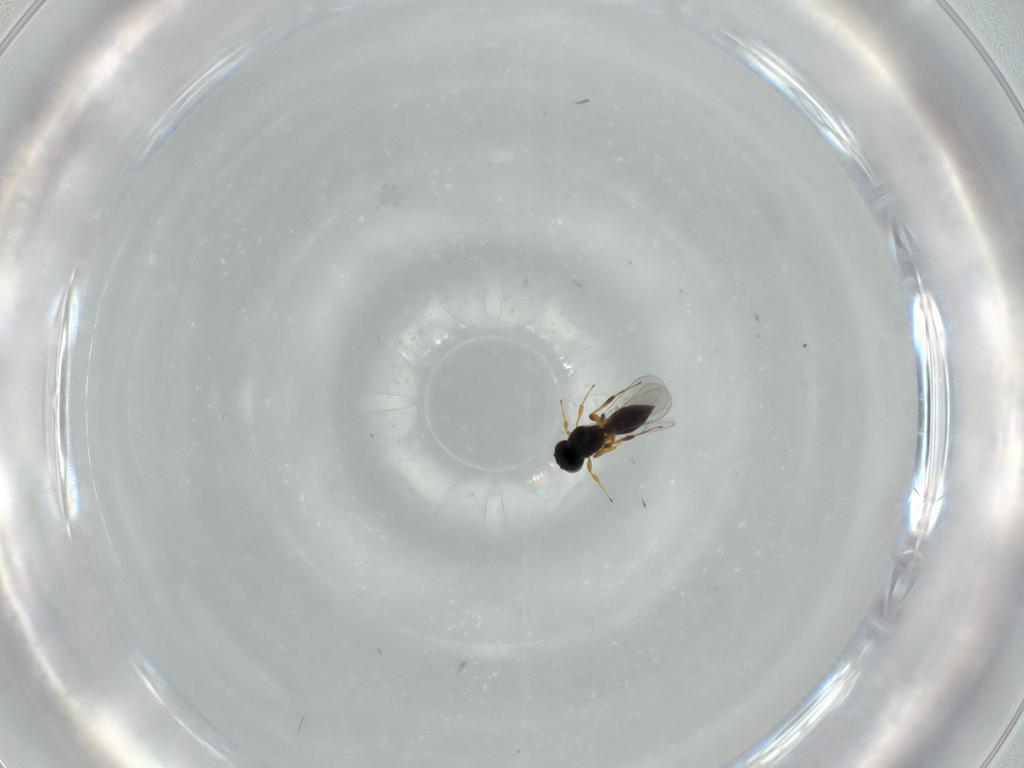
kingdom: Animalia
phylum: Arthropoda
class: Insecta
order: Hymenoptera
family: Platygastridae
